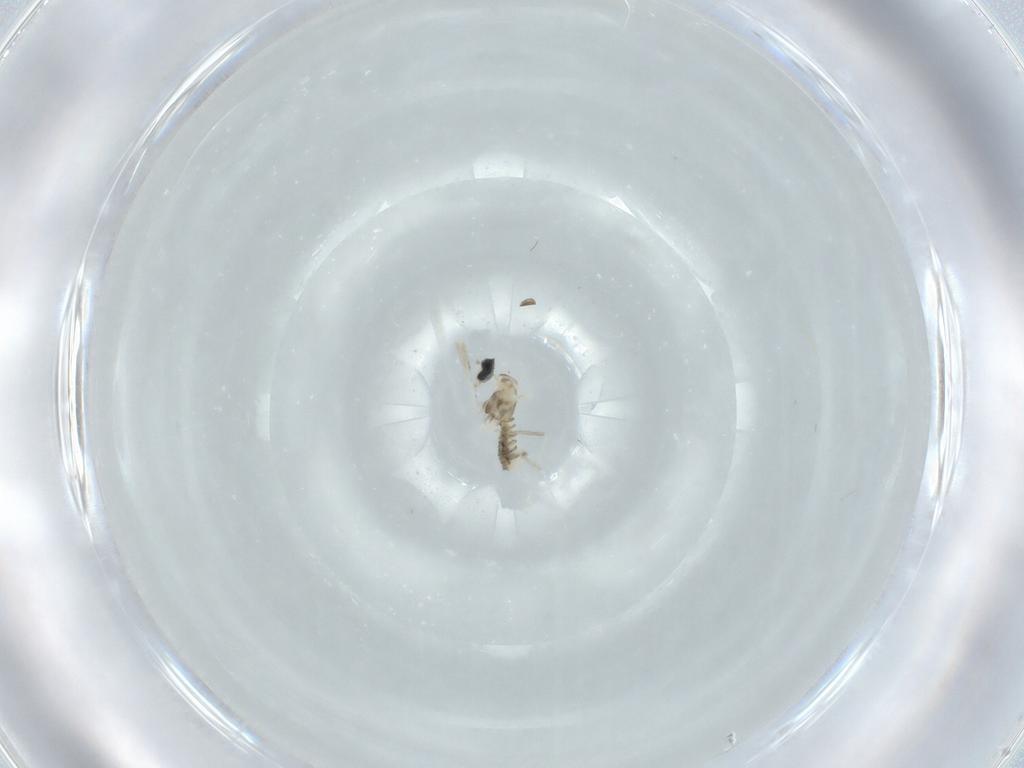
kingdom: Animalia
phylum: Arthropoda
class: Insecta
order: Diptera
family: Cecidomyiidae
